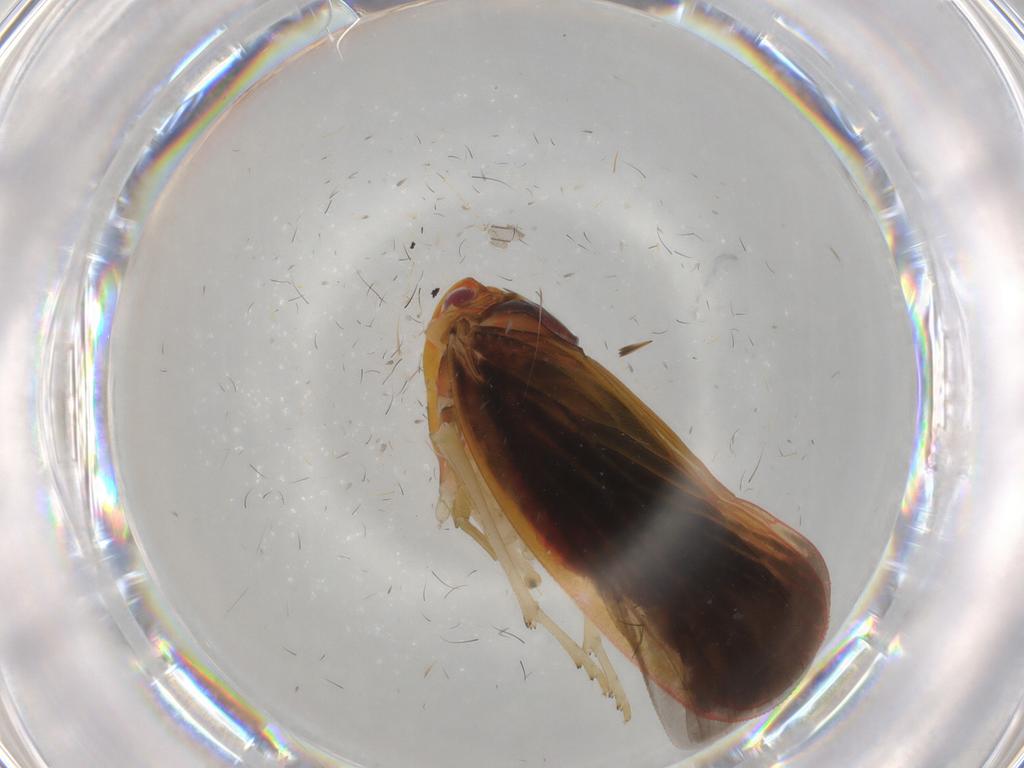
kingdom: Animalia
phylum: Arthropoda
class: Insecta
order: Hemiptera
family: Derbidae
